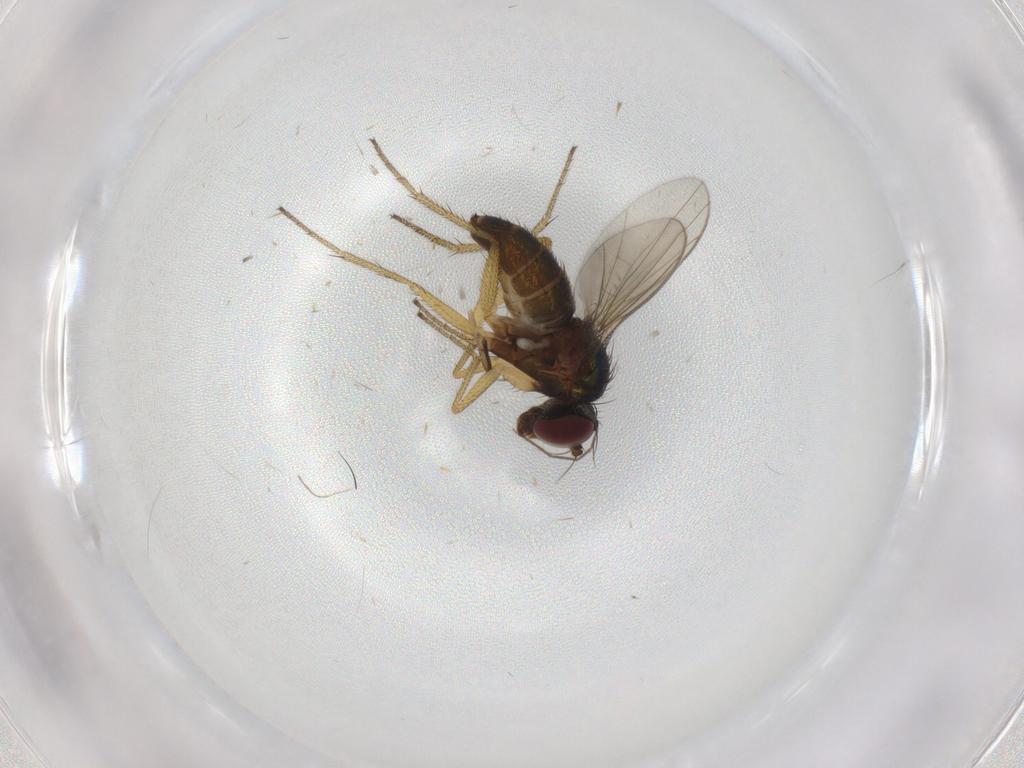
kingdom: Animalia
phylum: Arthropoda
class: Insecta
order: Diptera
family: Chironomidae
